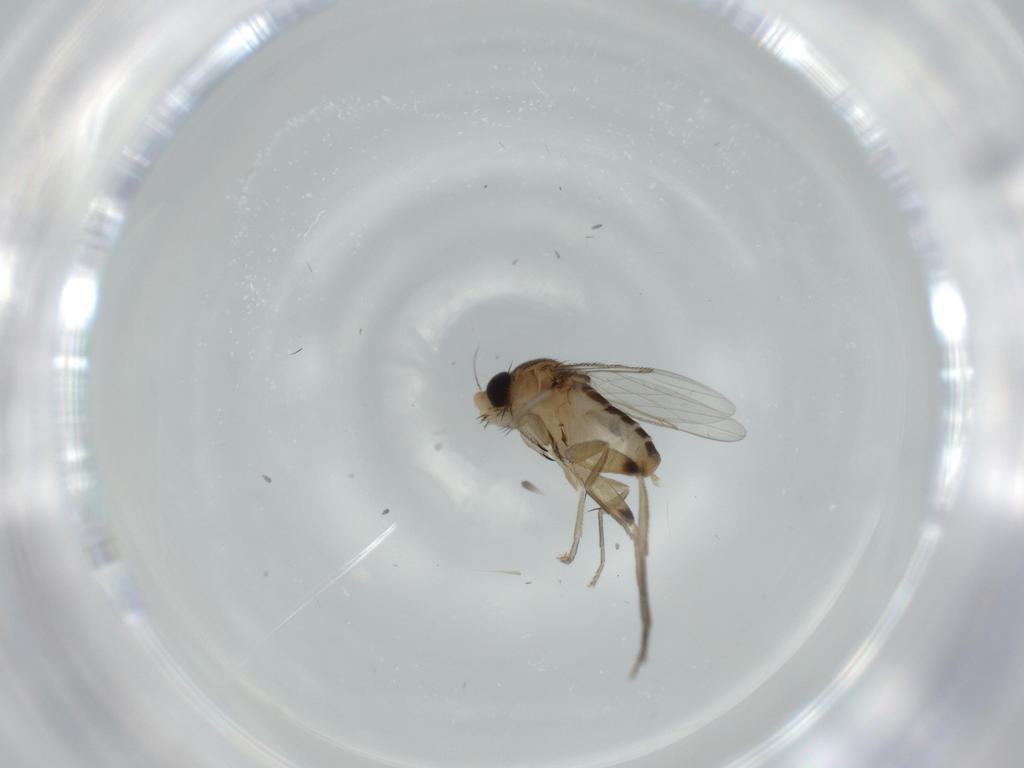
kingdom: Animalia
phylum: Arthropoda
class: Insecta
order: Diptera
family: Phoridae
